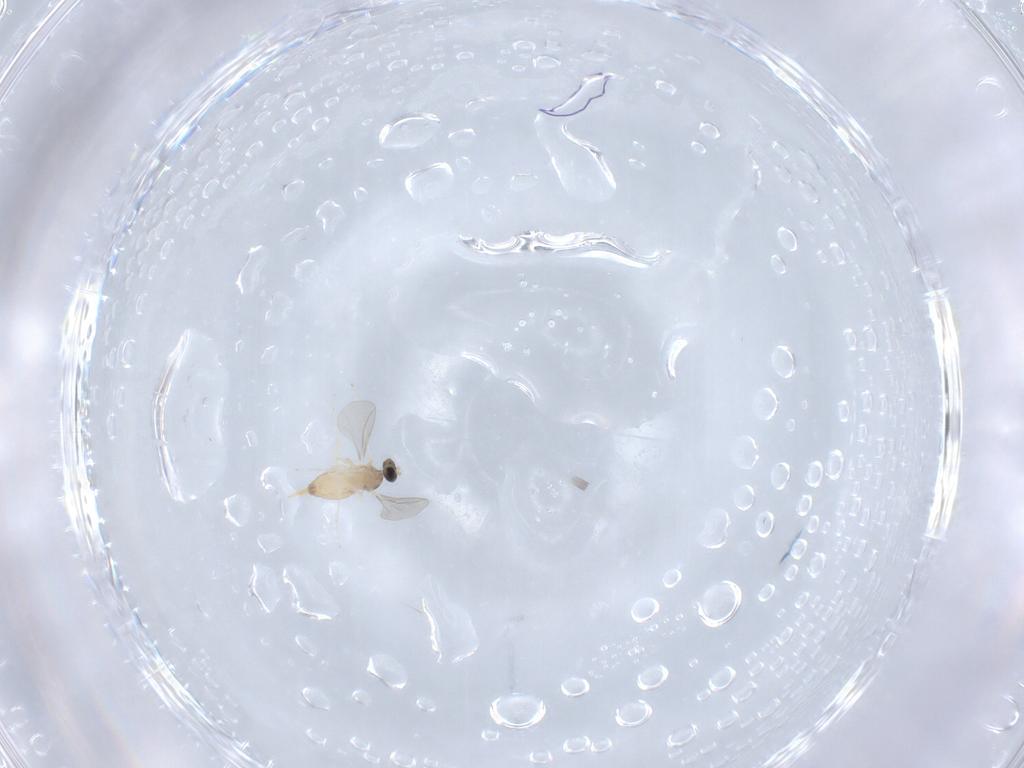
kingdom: Animalia
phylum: Arthropoda
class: Insecta
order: Diptera
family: Cecidomyiidae
